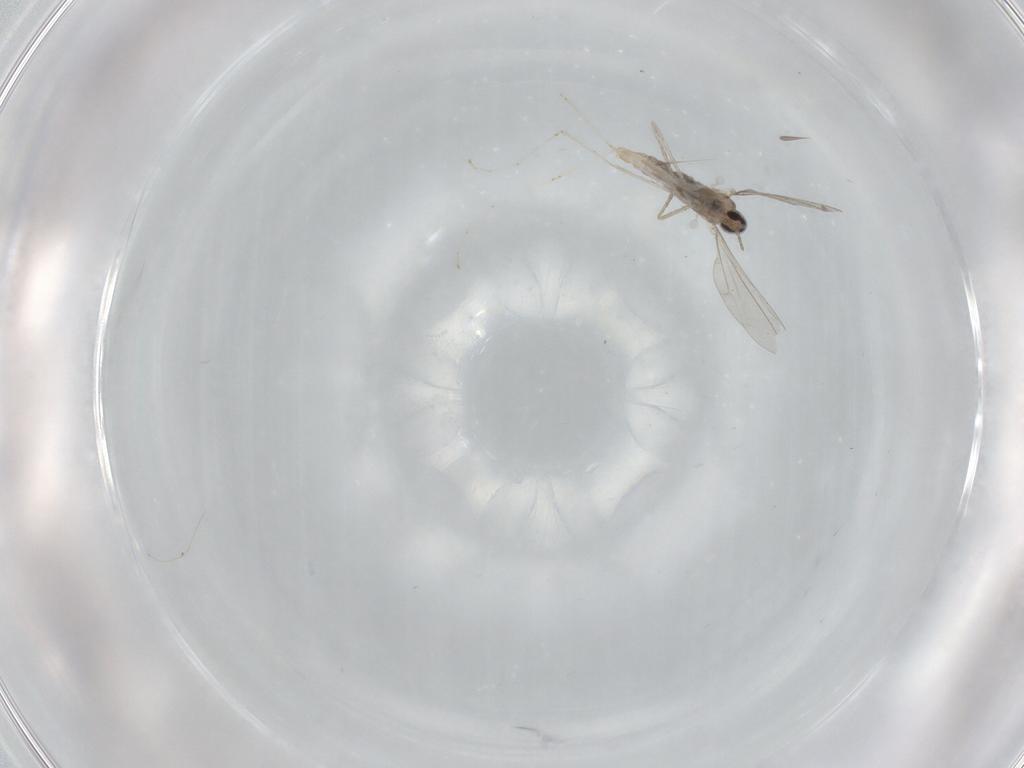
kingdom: Animalia
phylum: Arthropoda
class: Insecta
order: Diptera
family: Cecidomyiidae
